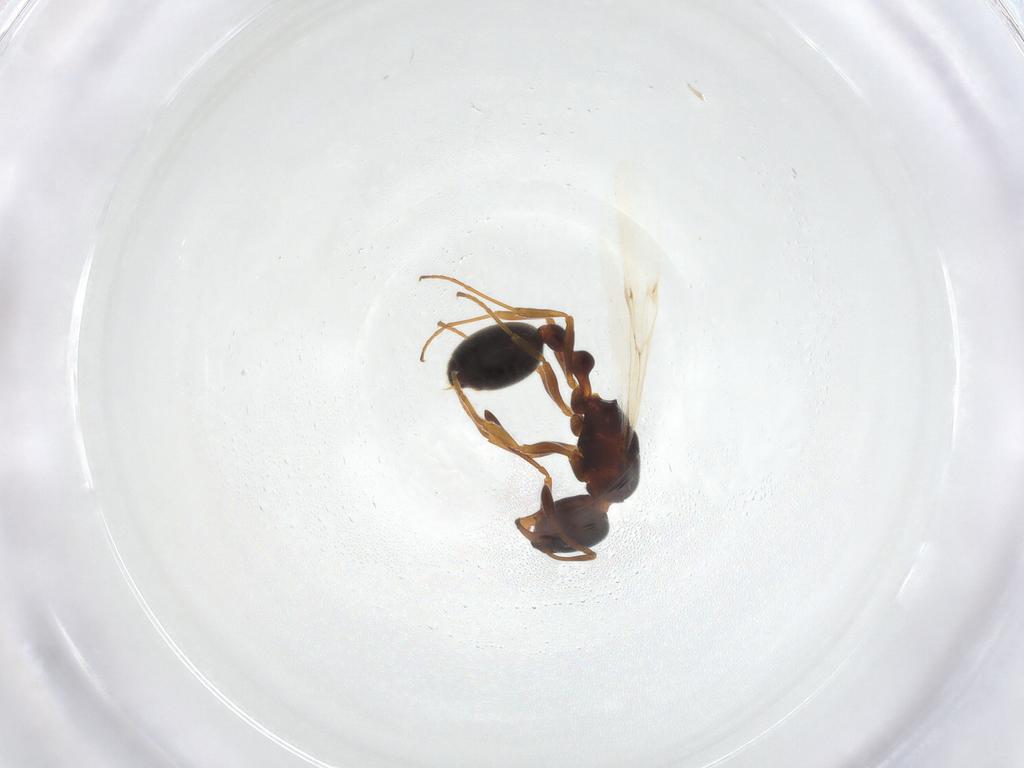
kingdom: Animalia
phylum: Arthropoda
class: Insecta
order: Hymenoptera
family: Formicidae
